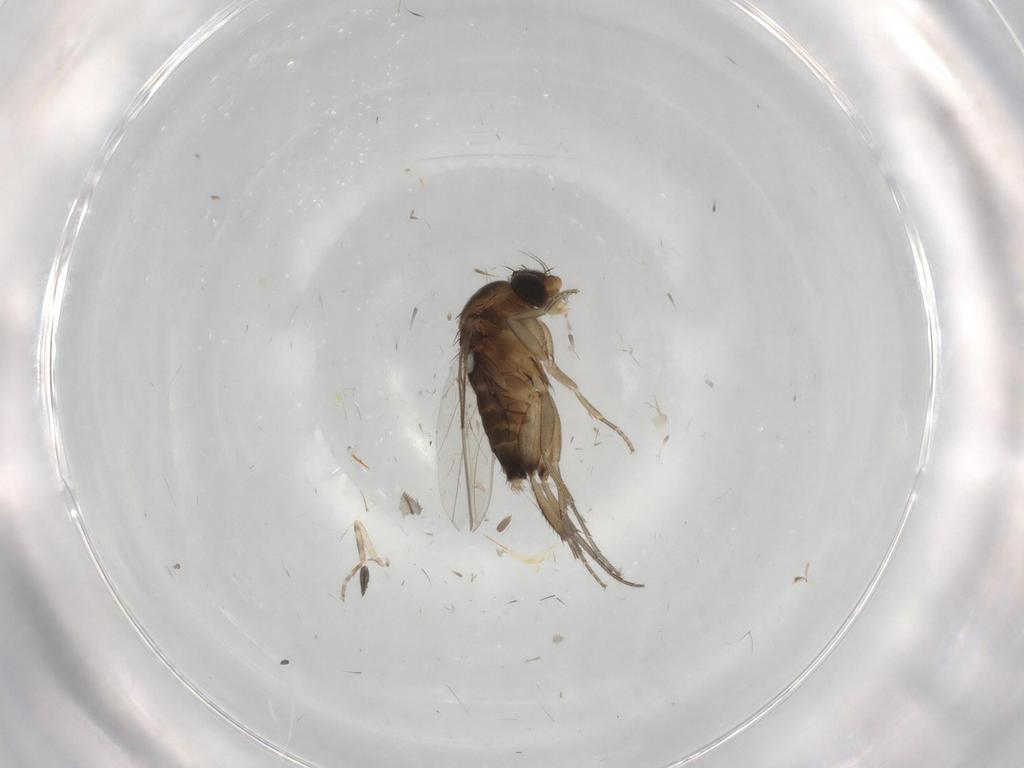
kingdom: Animalia
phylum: Arthropoda
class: Insecta
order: Diptera
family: Phoridae
